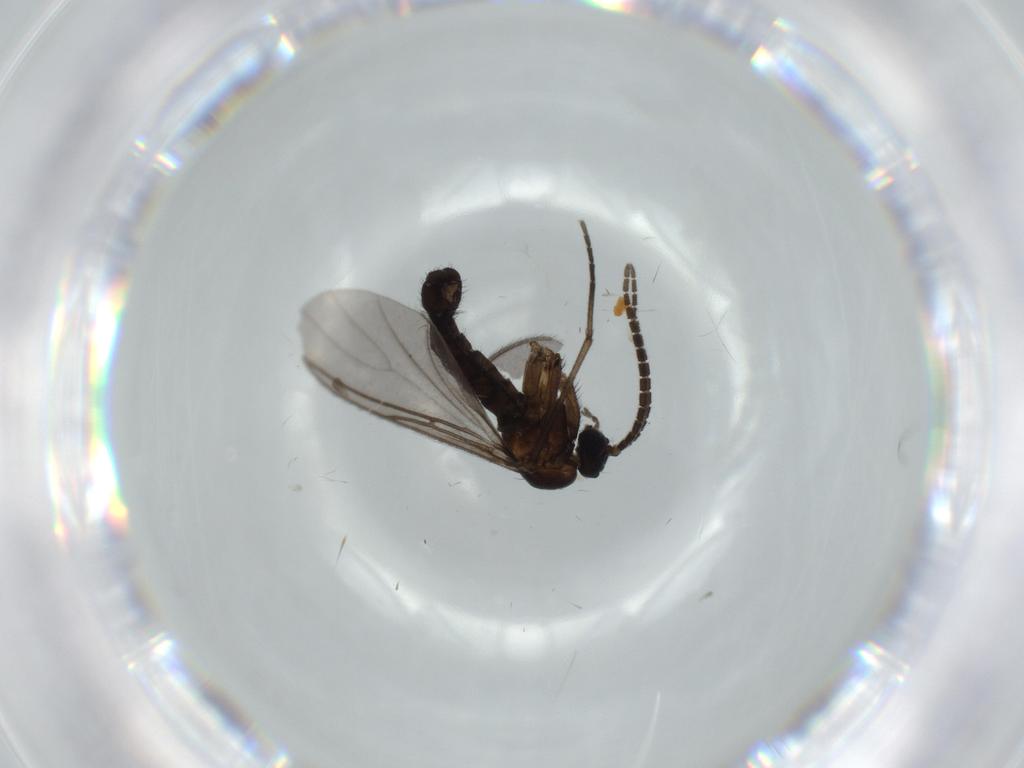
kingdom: Animalia
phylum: Arthropoda
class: Insecta
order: Diptera
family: Sciaridae
